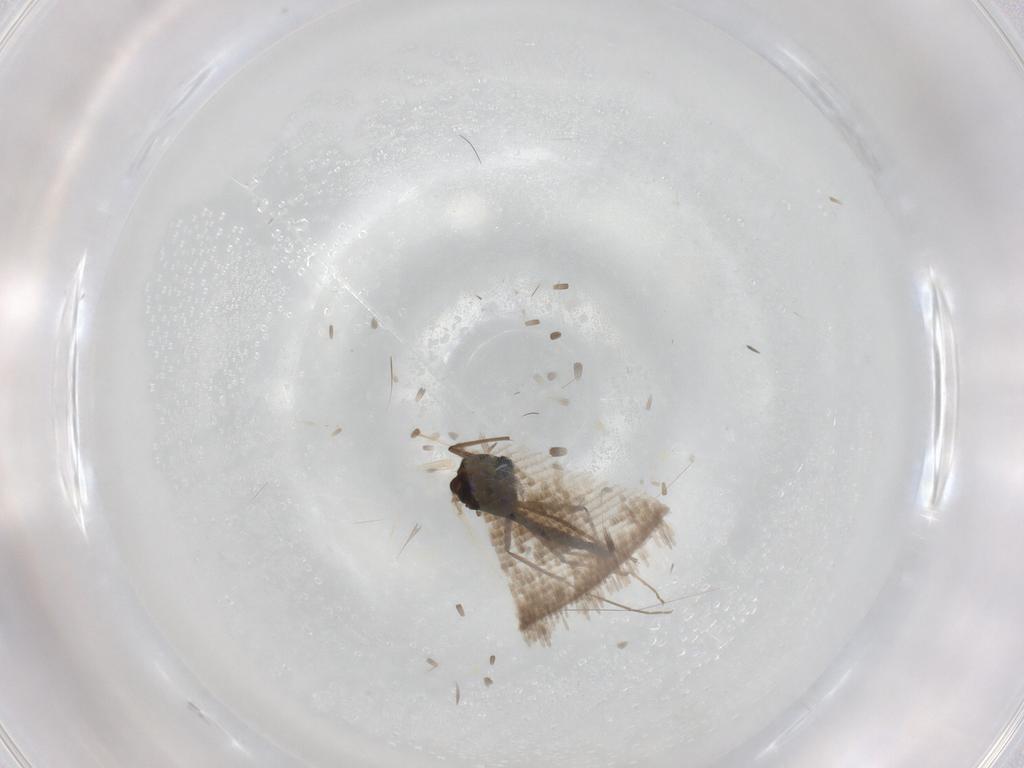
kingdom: Animalia
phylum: Arthropoda
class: Insecta
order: Diptera
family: Chironomidae
